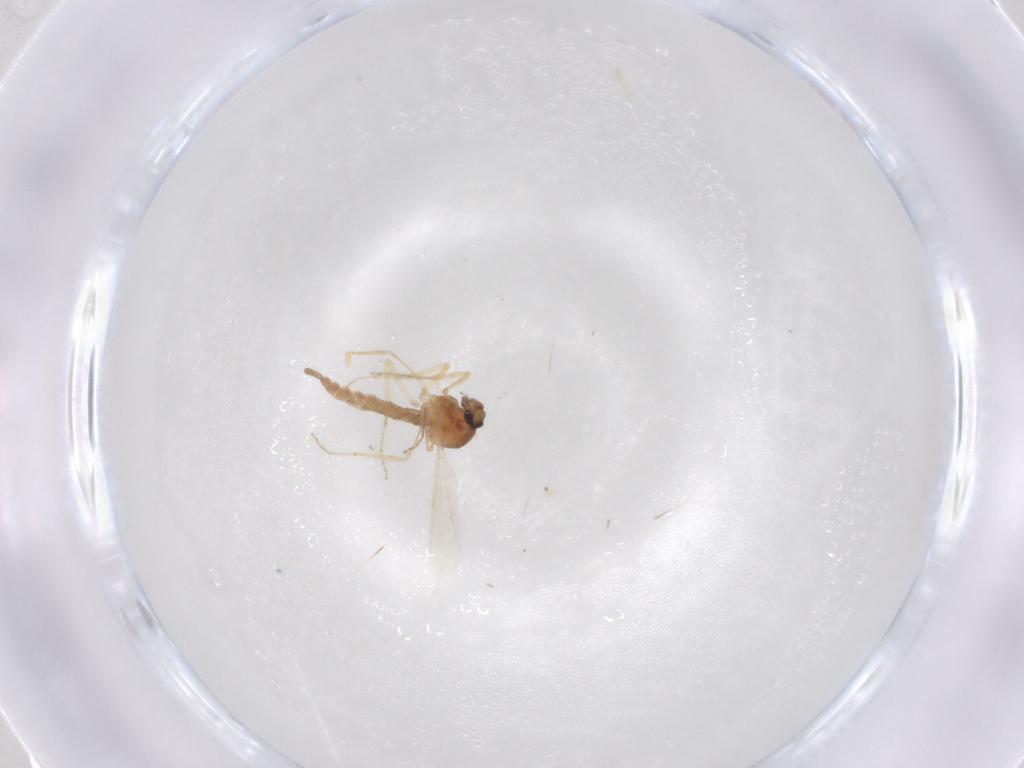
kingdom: Animalia
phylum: Arthropoda
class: Insecta
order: Diptera
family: Ceratopogonidae
